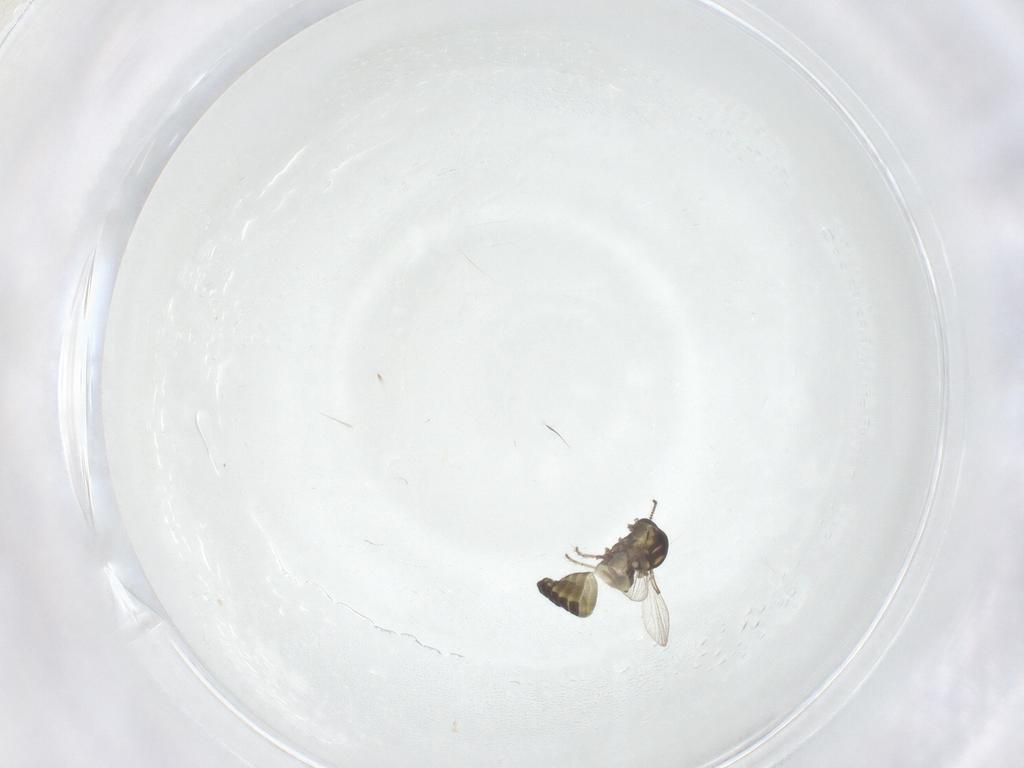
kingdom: Animalia
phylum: Arthropoda
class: Insecta
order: Diptera
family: Ceratopogonidae
